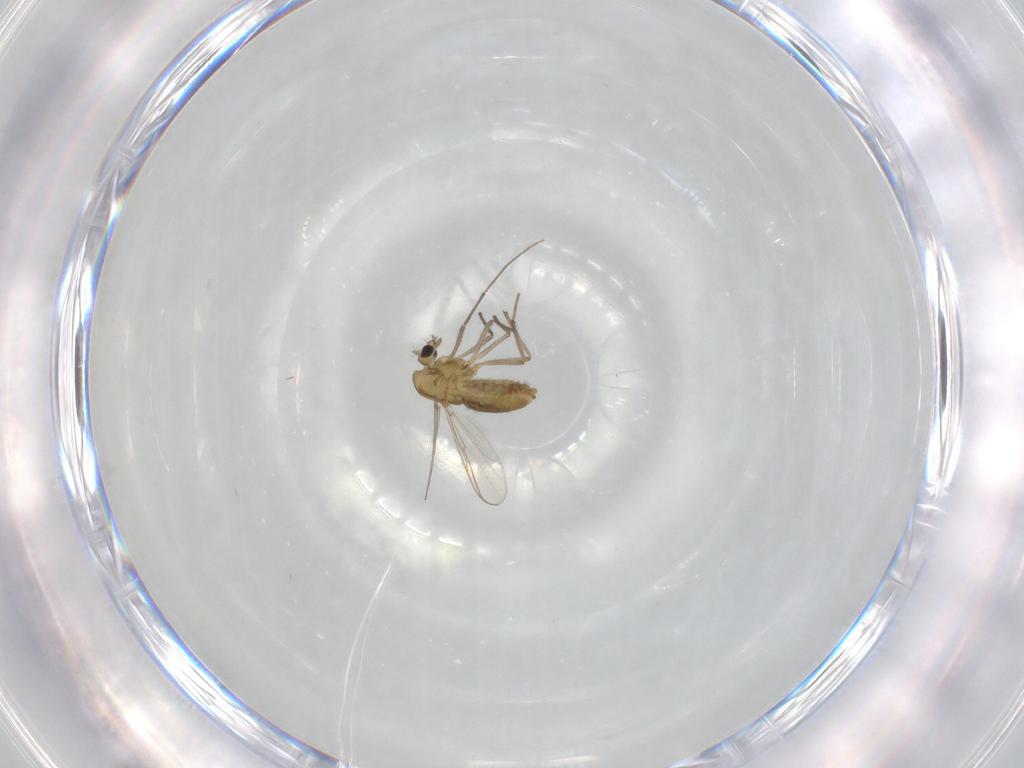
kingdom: Animalia
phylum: Arthropoda
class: Insecta
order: Diptera
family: Chironomidae
